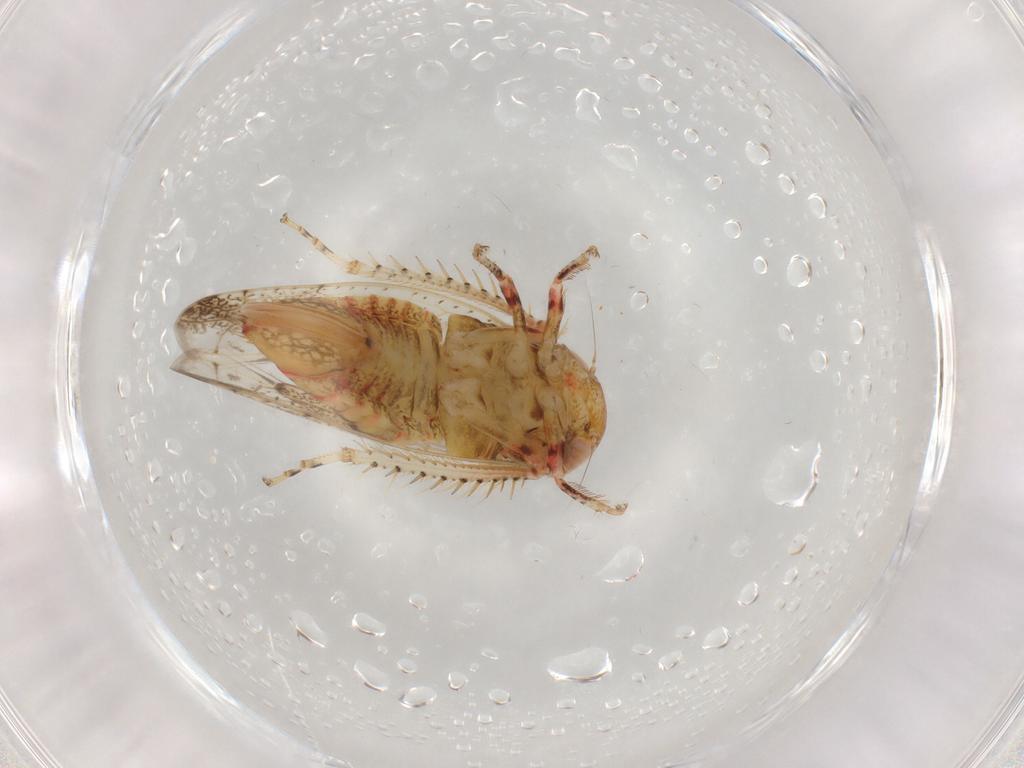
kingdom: Animalia
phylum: Arthropoda
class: Insecta
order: Hemiptera
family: Cicadellidae
